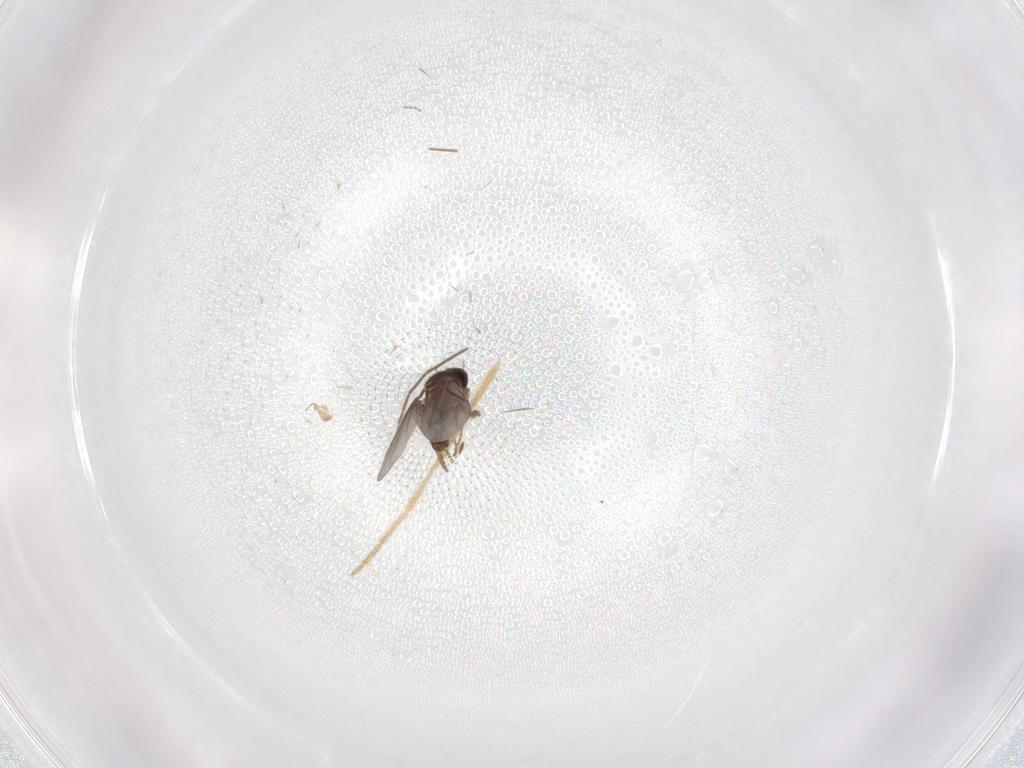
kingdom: Animalia
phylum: Arthropoda
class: Insecta
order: Diptera
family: Chironomidae
